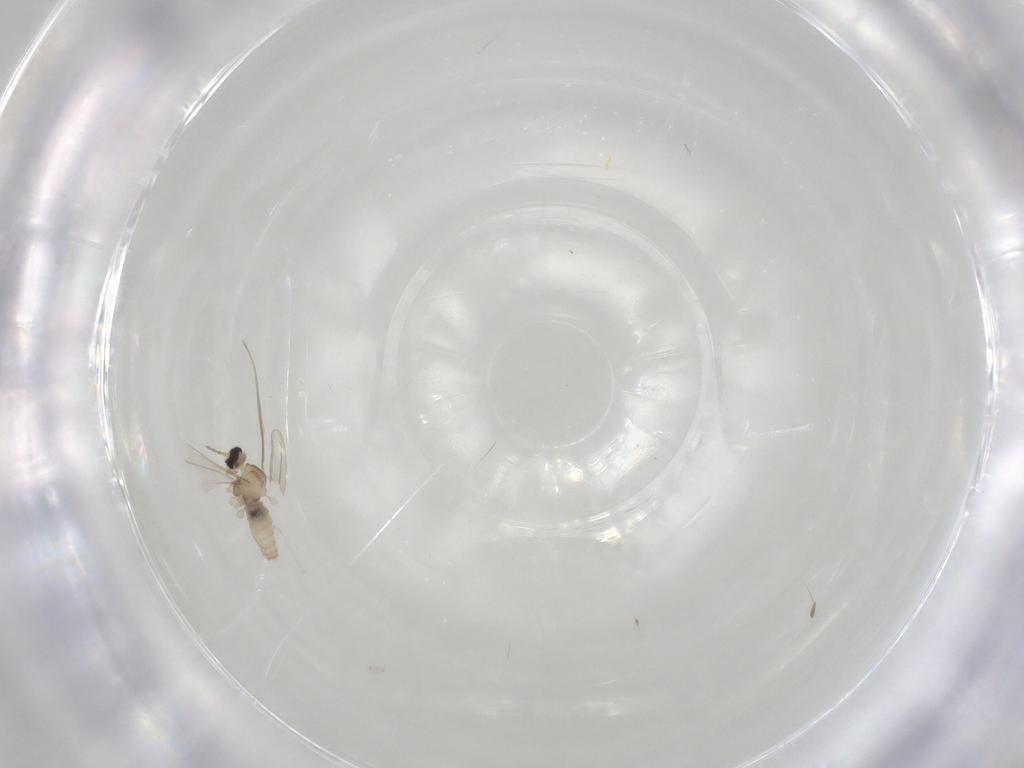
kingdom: Animalia
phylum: Arthropoda
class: Insecta
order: Diptera
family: Cecidomyiidae
